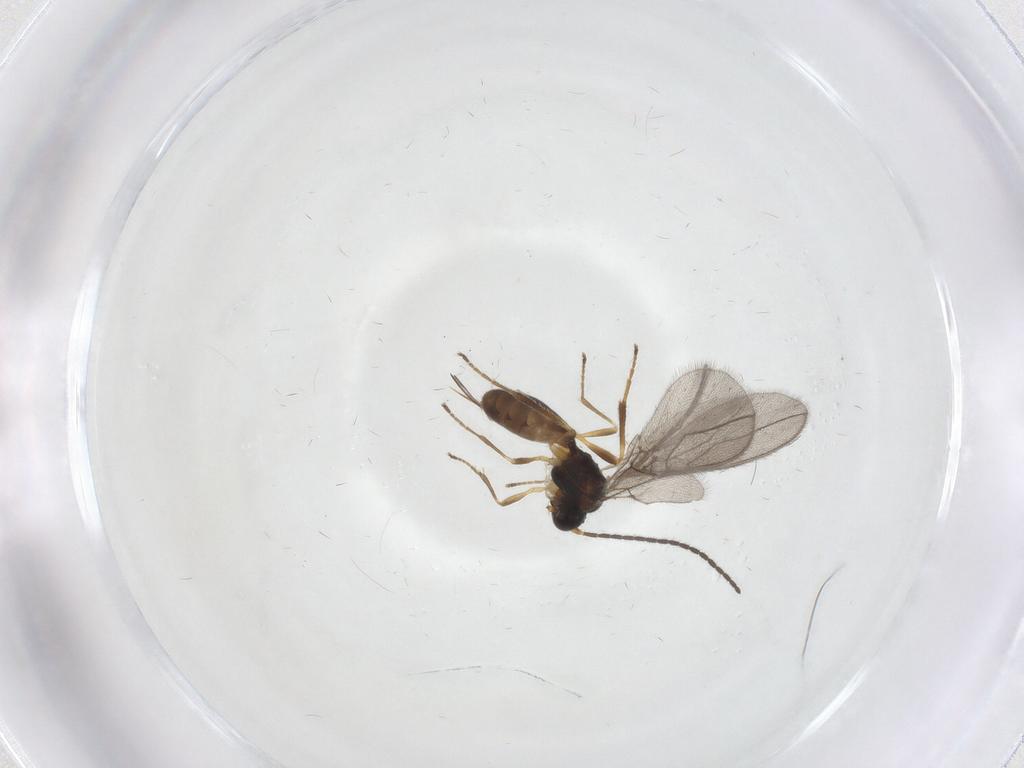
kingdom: Animalia
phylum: Arthropoda
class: Insecta
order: Hymenoptera
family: Braconidae
